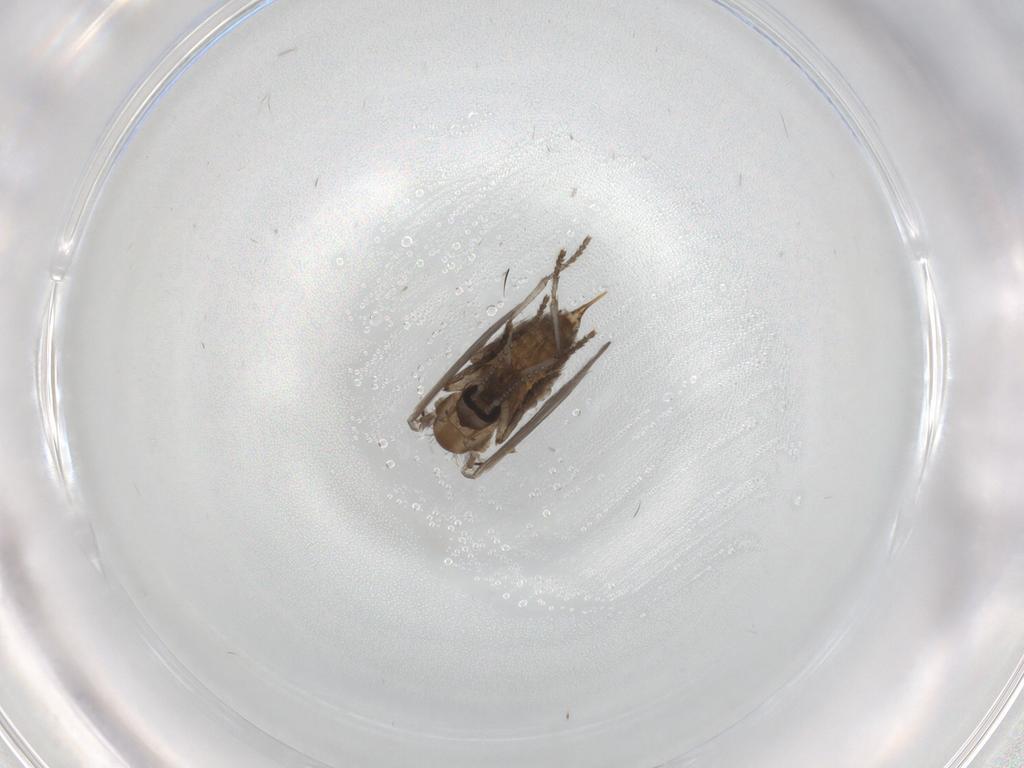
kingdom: Animalia
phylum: Arthropoda
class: Insecta
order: Diptera
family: Psychodidae
